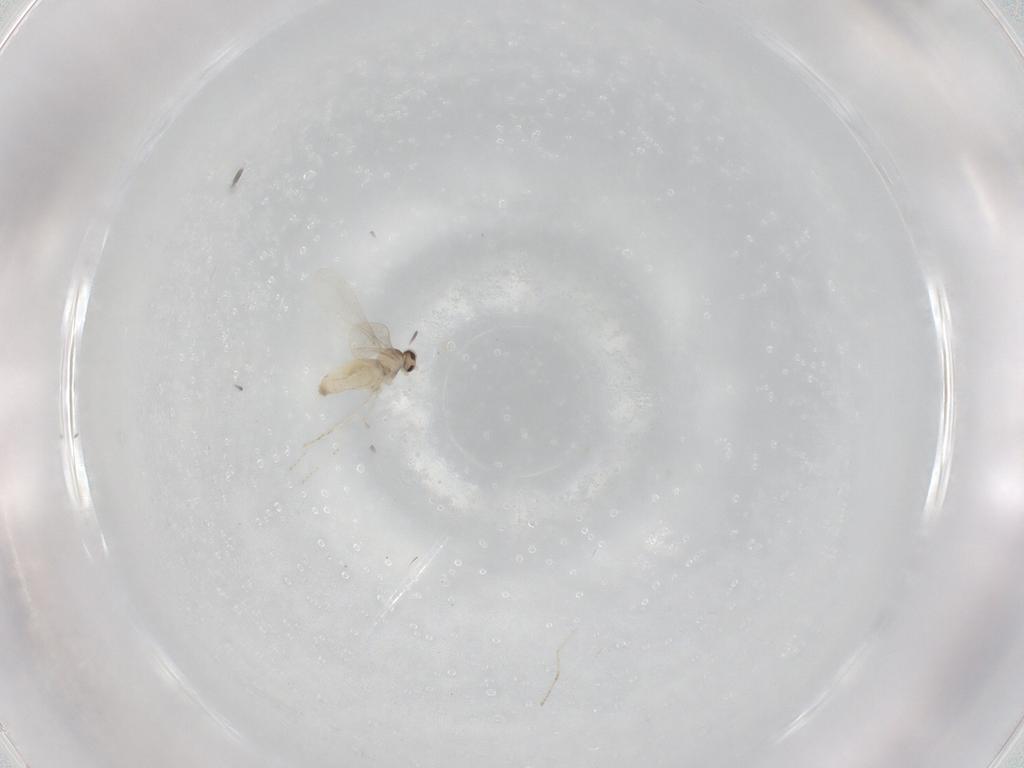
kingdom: Animalia
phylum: Arthropoda
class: Insecta
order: Diptera
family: Cecidomyiidae
